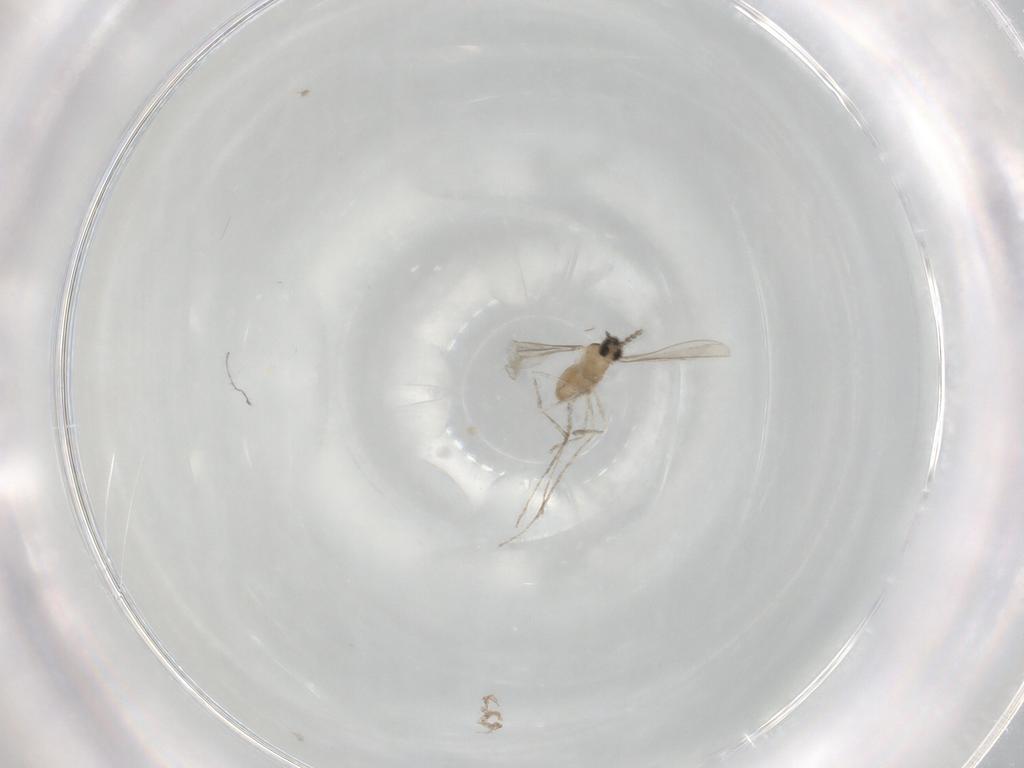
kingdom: Animalia
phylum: Arthropoda
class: Insecta
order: Diptera
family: Cecidomyiidae
